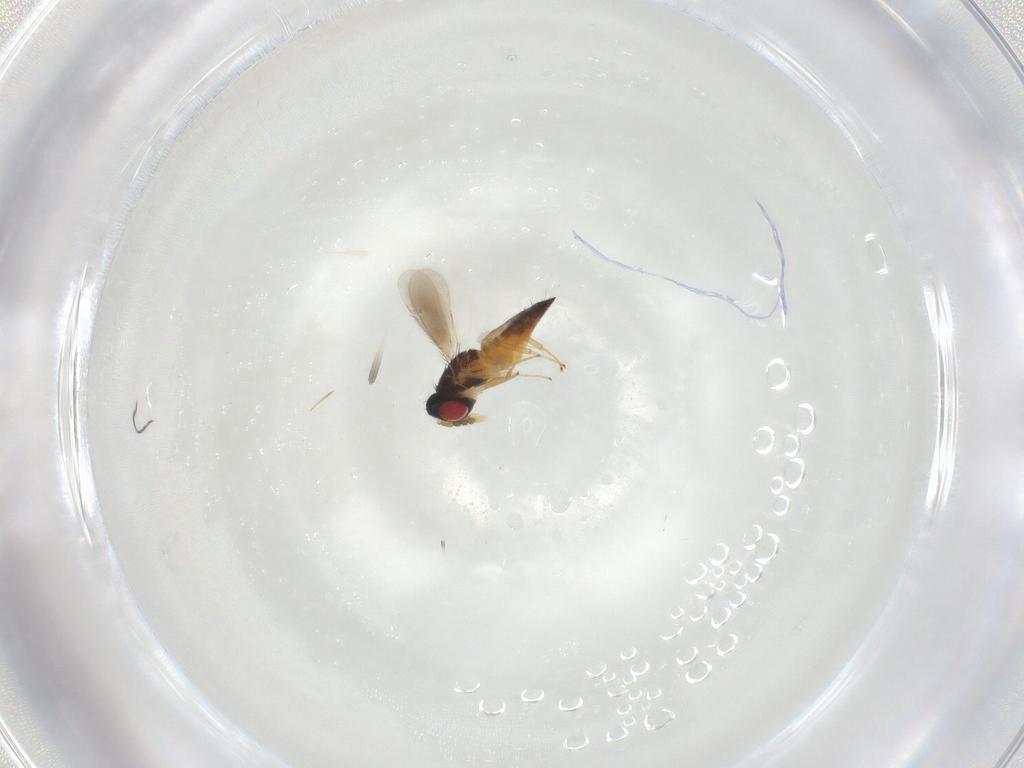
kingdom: Animalia
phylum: Arthropoda
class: Insecta
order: Hymenoptera
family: Eulophidae
